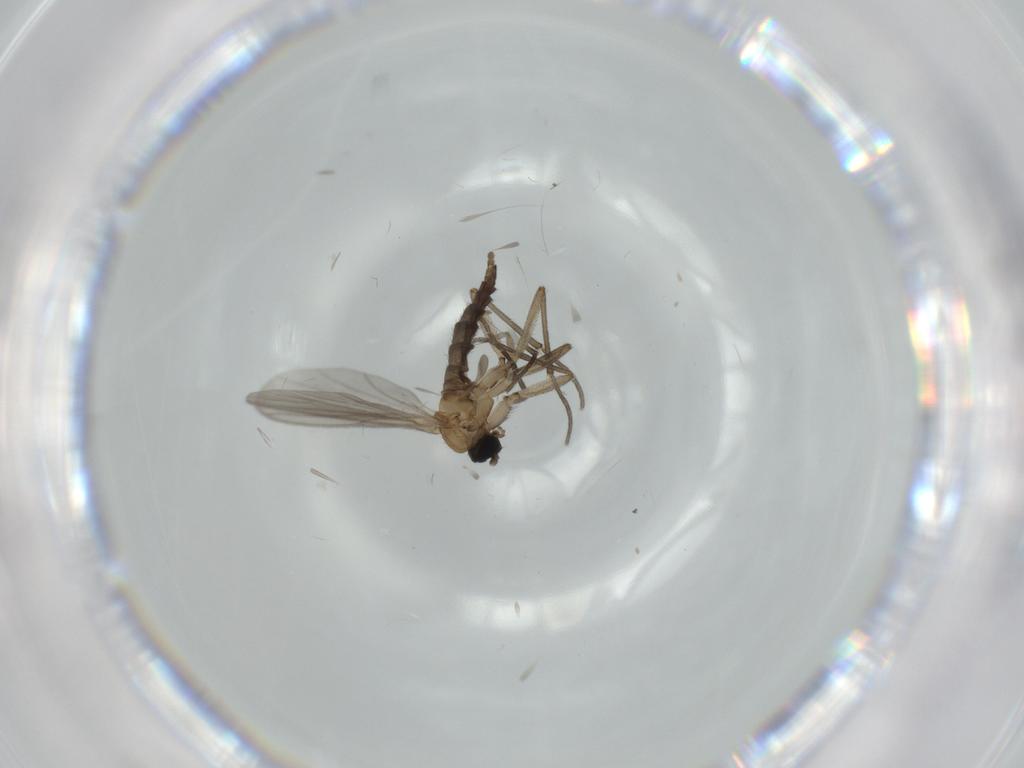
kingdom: Animalia
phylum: Arthropoda
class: Insecta
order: Diptera
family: Sciaridae
